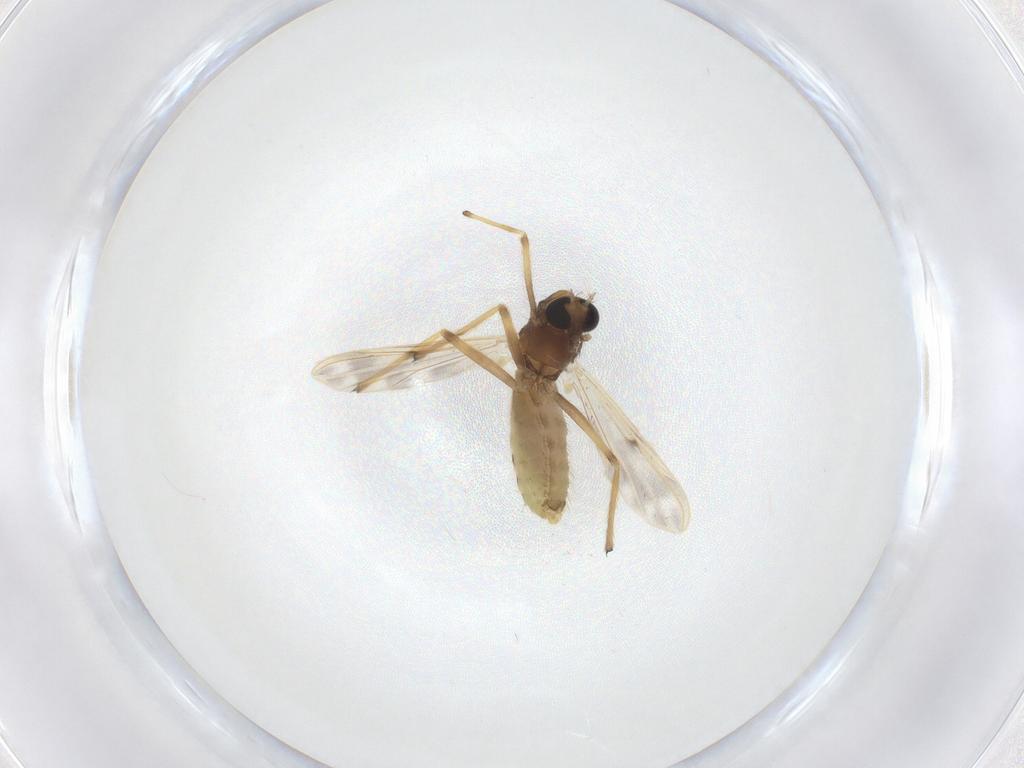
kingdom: Animalia
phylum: Arthropoda
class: Insecta
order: Diptera
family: Chironomidae
